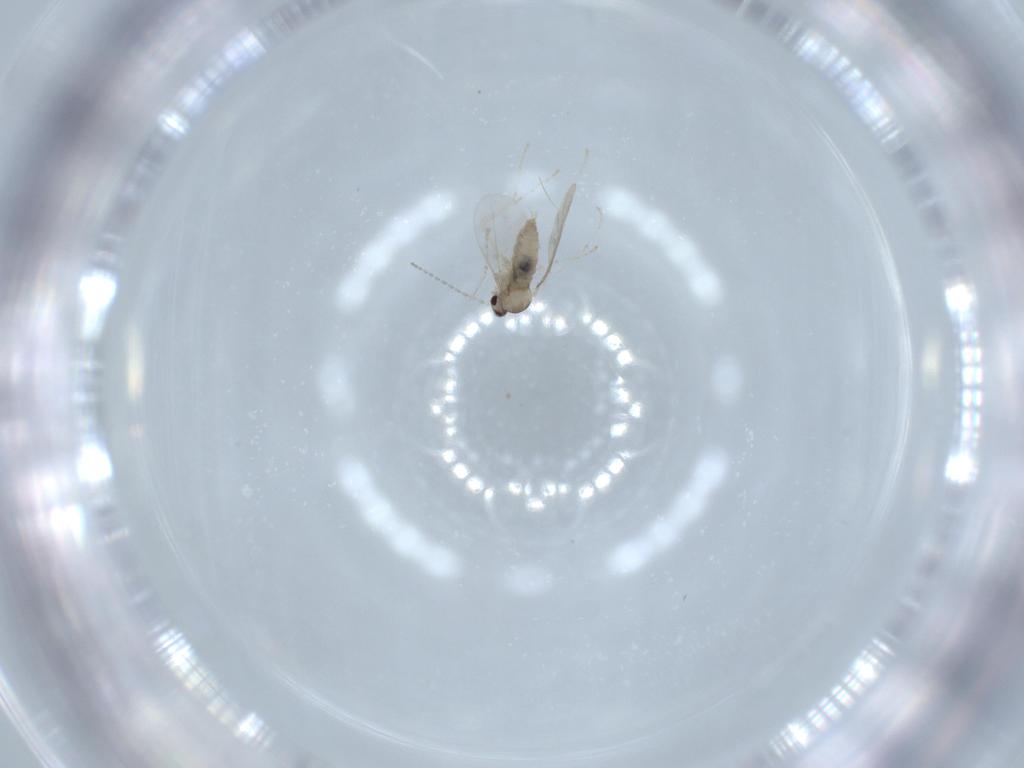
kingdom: Animalia
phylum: Arthropoda
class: Insecta
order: Diptera
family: Cecidomyiidae
